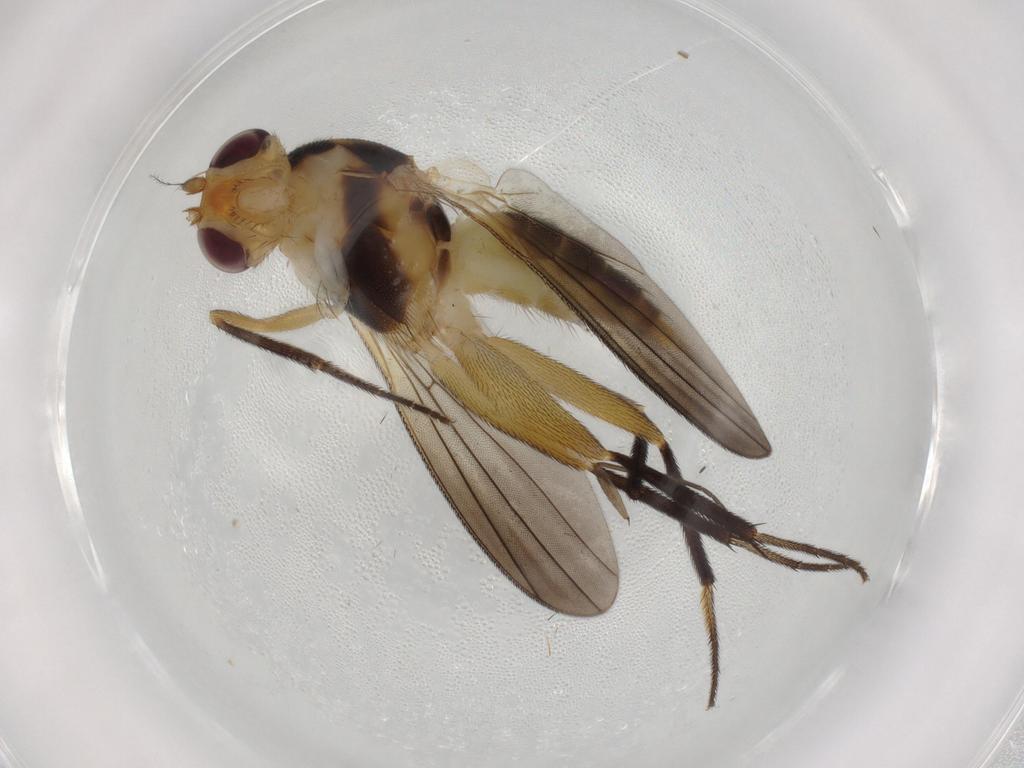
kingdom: Animalia
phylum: Arthropoda
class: Insecta
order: Diptera
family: Clusiidae
